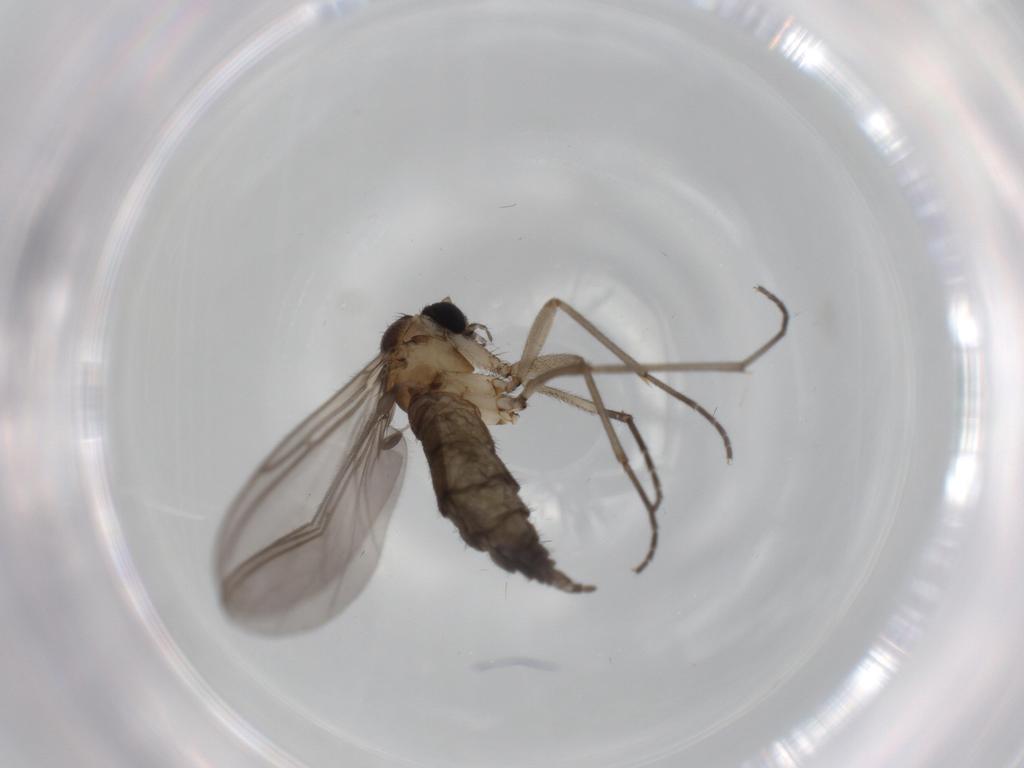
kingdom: Animalia
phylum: Arthropoda
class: Insecta
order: Diptera
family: Sciaridae
